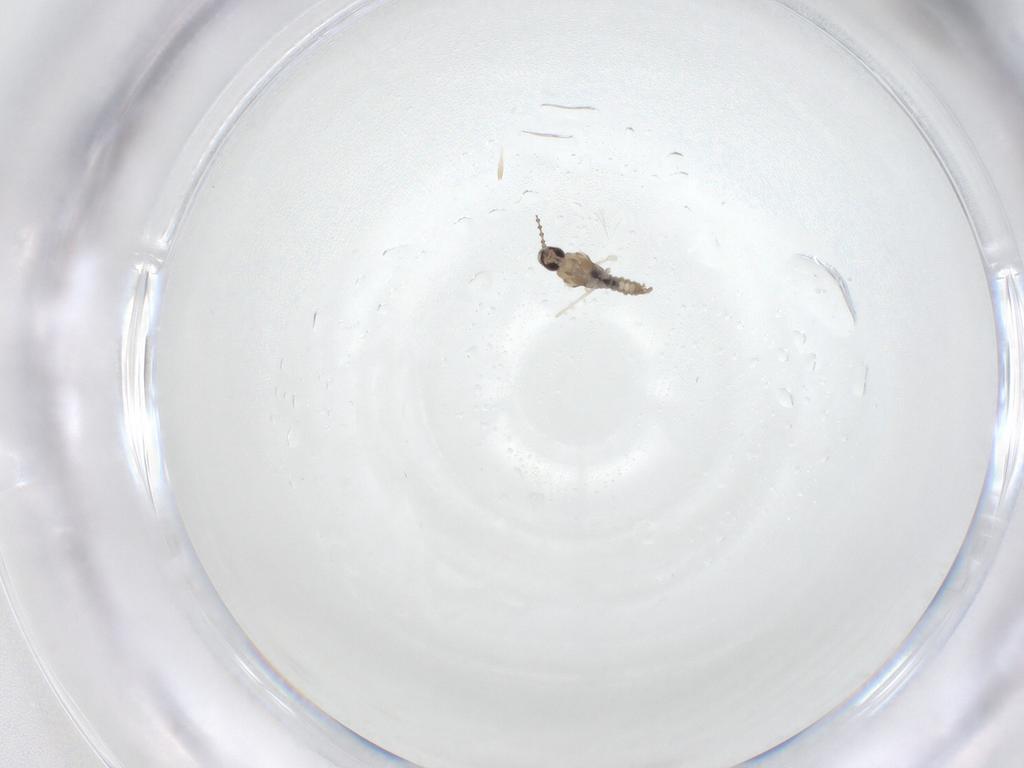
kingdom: Animalia
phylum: Arthropoda
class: Insecta
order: Diptera
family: Cecidomyiidae
